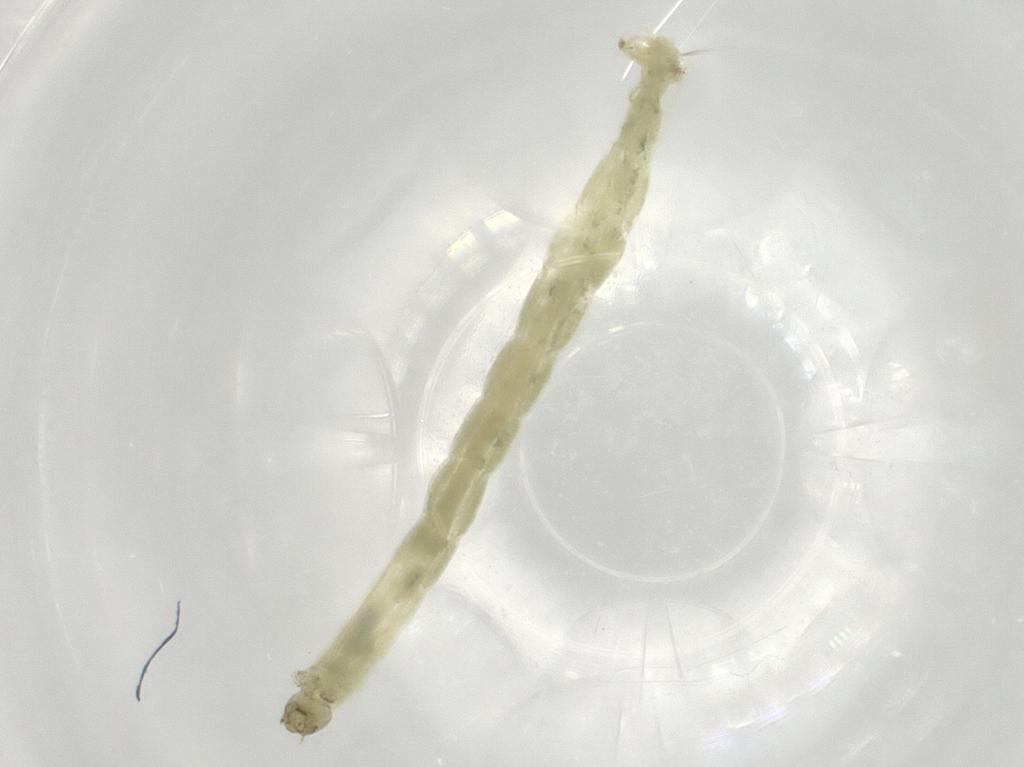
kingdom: Animalia
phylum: Arthropoda
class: Insecta
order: Diptera
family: Chironomidae
